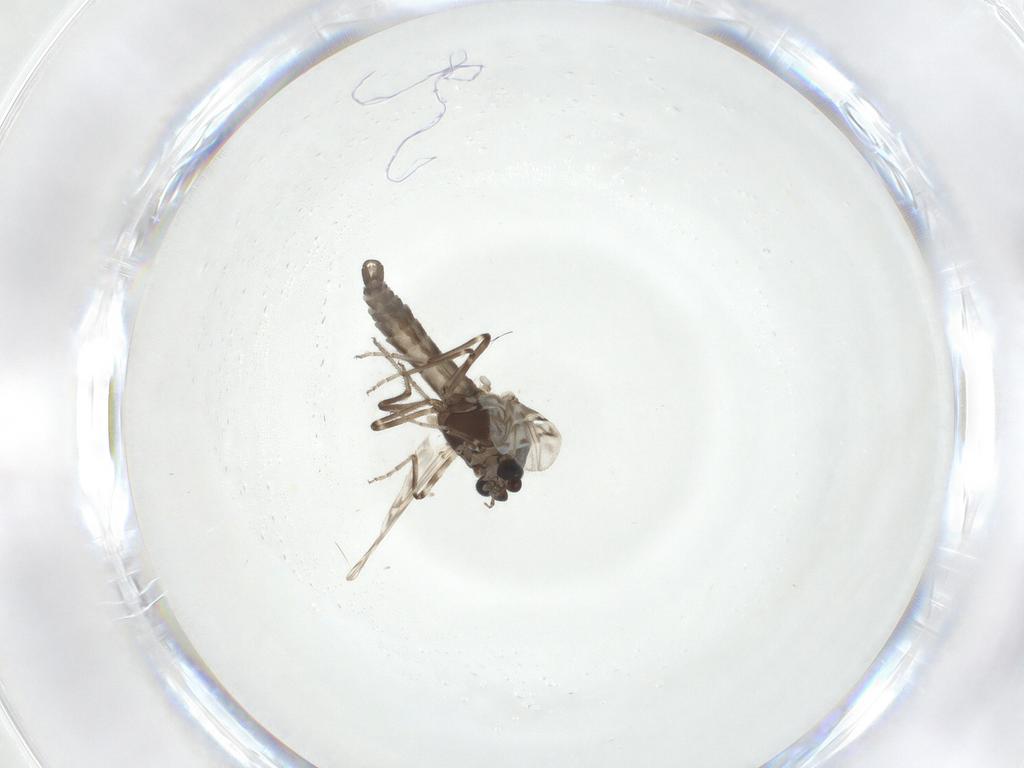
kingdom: Animalia
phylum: Arthropoda
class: Insecta
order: Diptera
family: Ceratopogonidae
